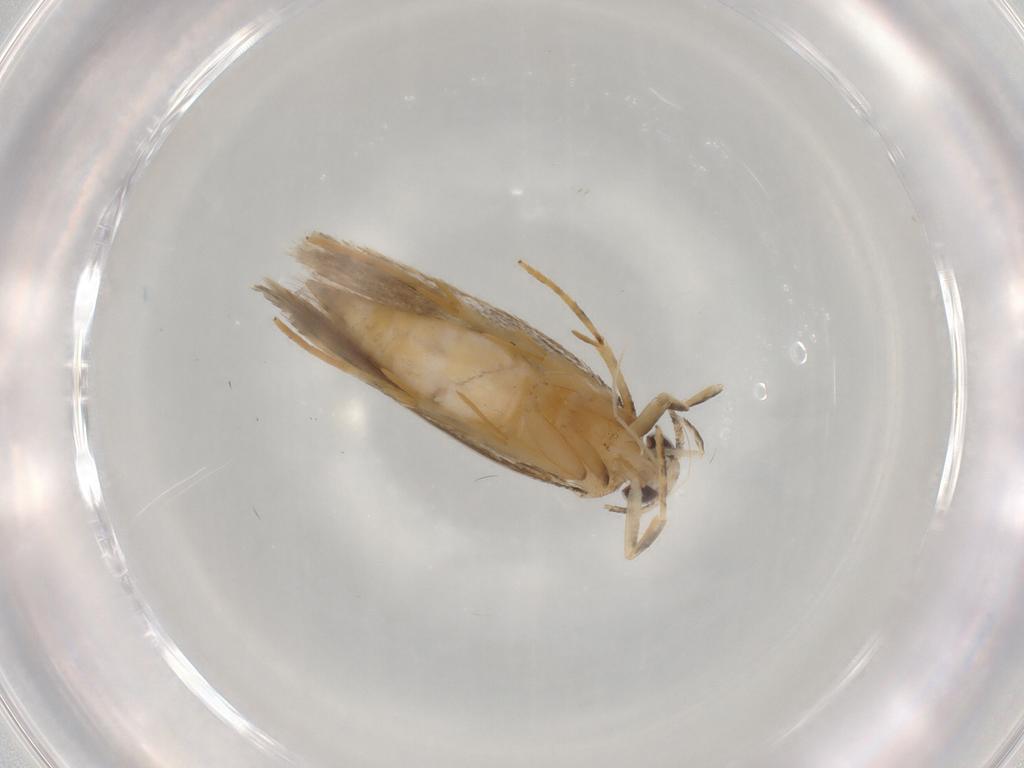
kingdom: Animalia
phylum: Arthropoda
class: Insecta
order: Lepidoptera
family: Autostichidae
